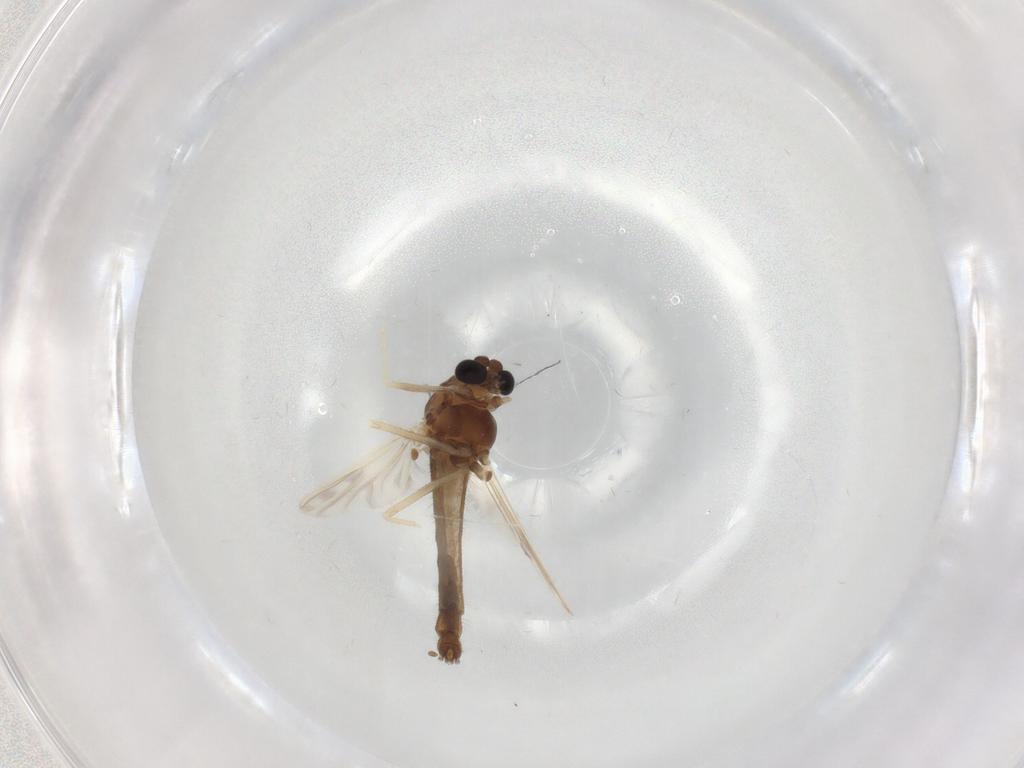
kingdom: Animalia
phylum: Arthropoda
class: Insecta
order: Diptera
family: Chironomidae
